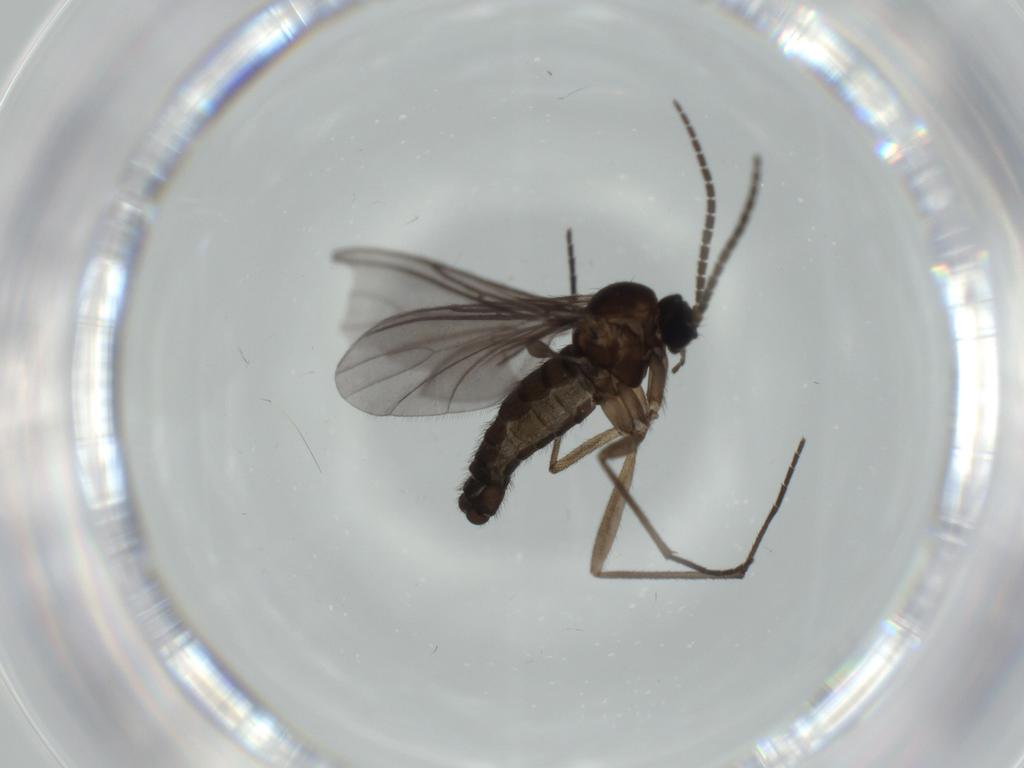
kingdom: Animalia
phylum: Arthropoda
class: Insecta
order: Diptera
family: Sciaridae
